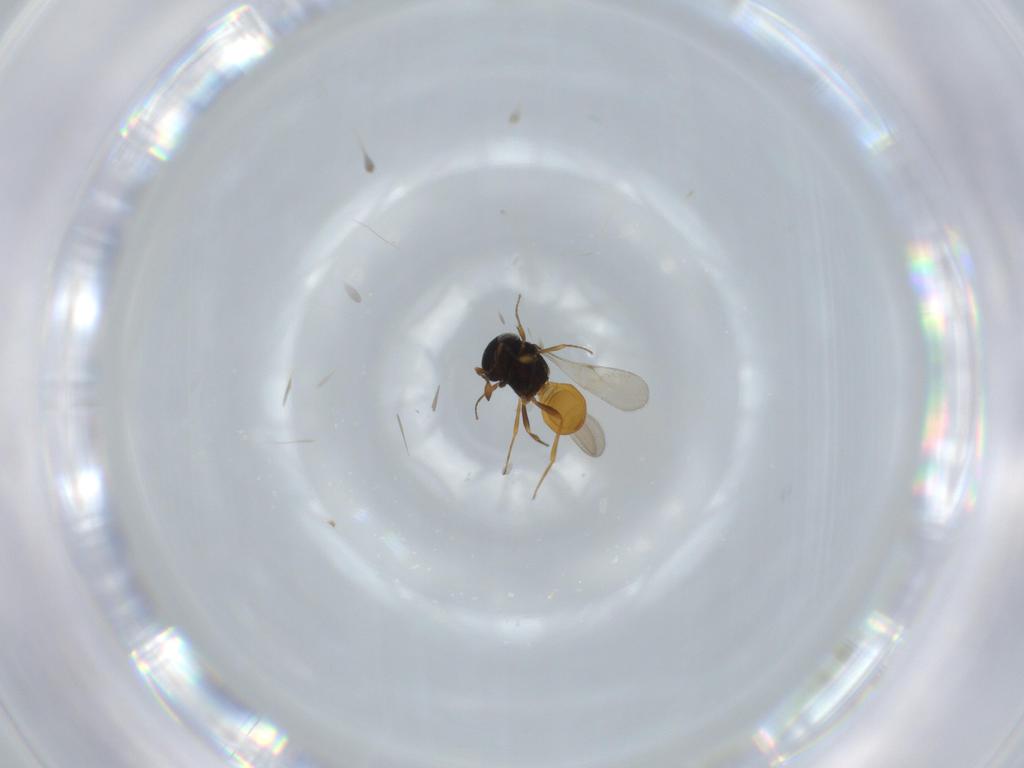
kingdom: Animalia
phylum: Arthropoda
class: Insecta
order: Hymenoptera
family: Scelionidae
